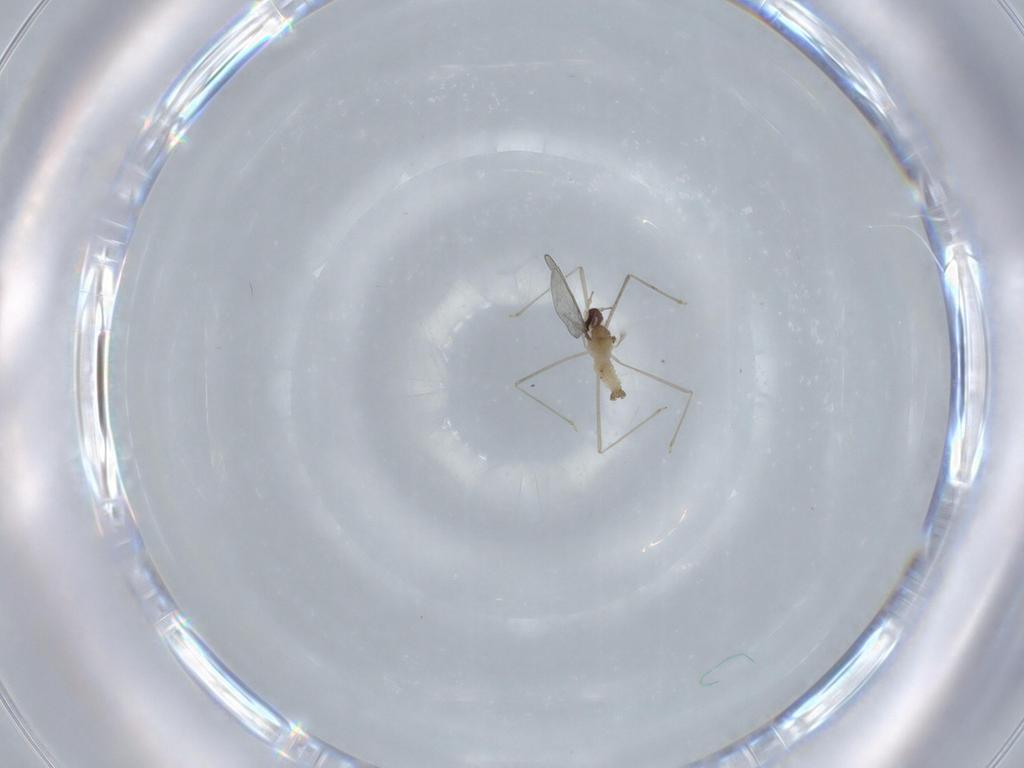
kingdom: Animalia
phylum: Arthropoda
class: Insecta
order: Diptera
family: Cecidomyiidae
